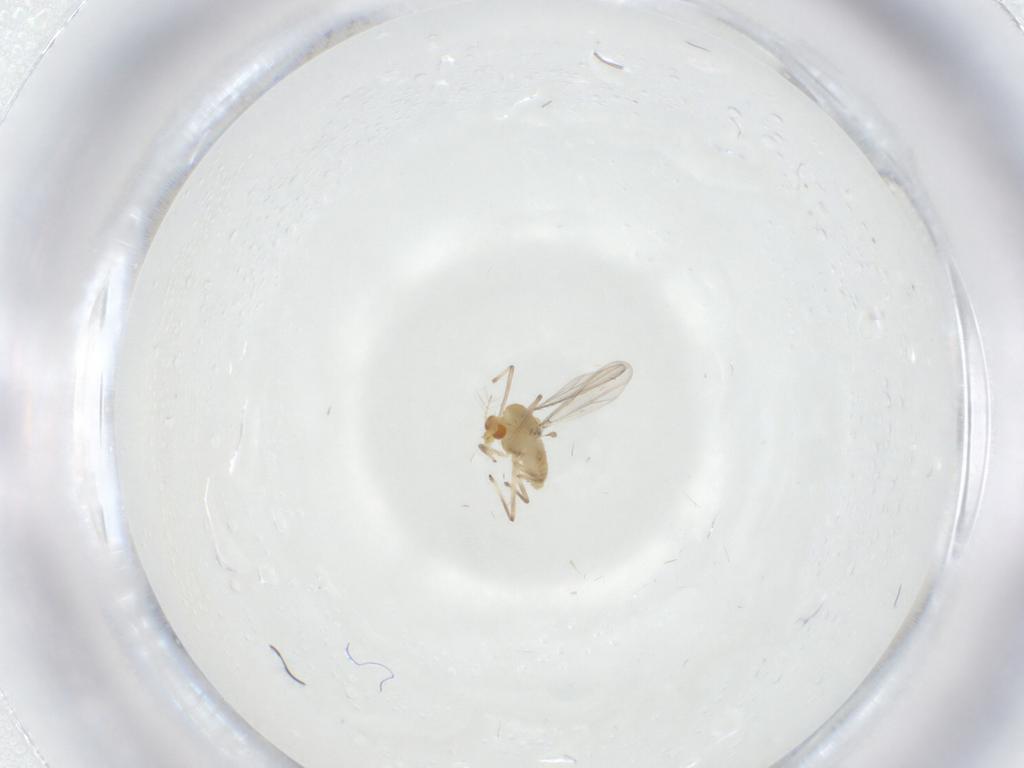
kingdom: Animalia
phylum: Arthropoda
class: Insecta
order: Diptera
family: Chironomidae
